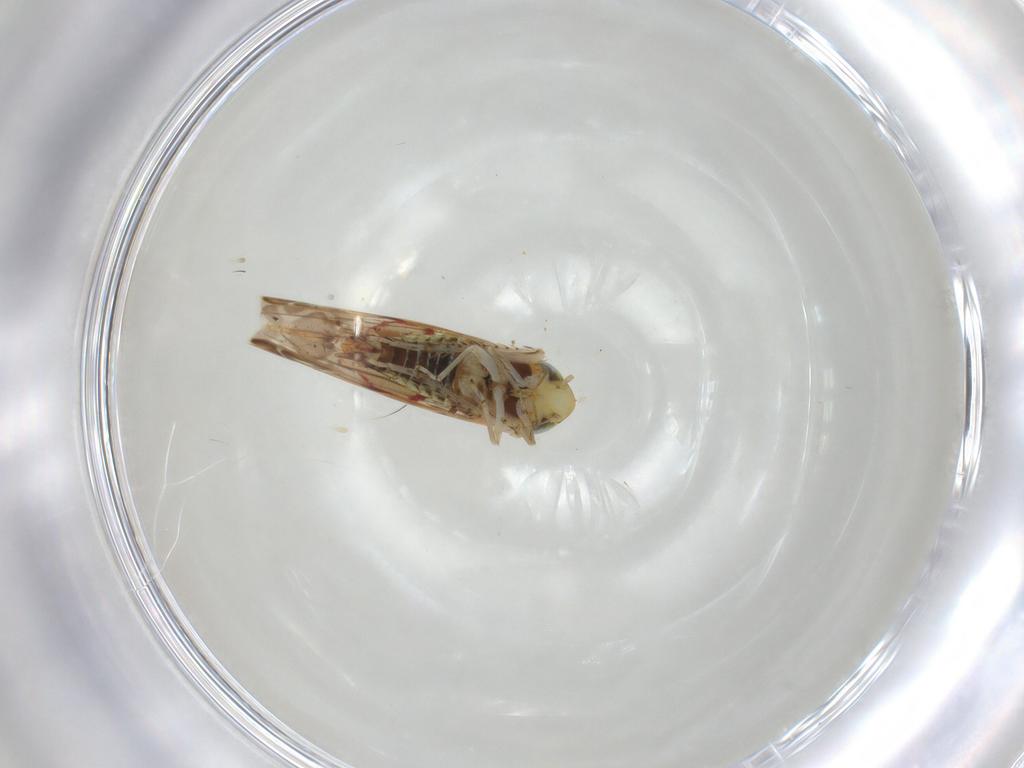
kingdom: Animalia
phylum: Arthropoda
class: Insecta
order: Hemiptera
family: Cicadellidae
